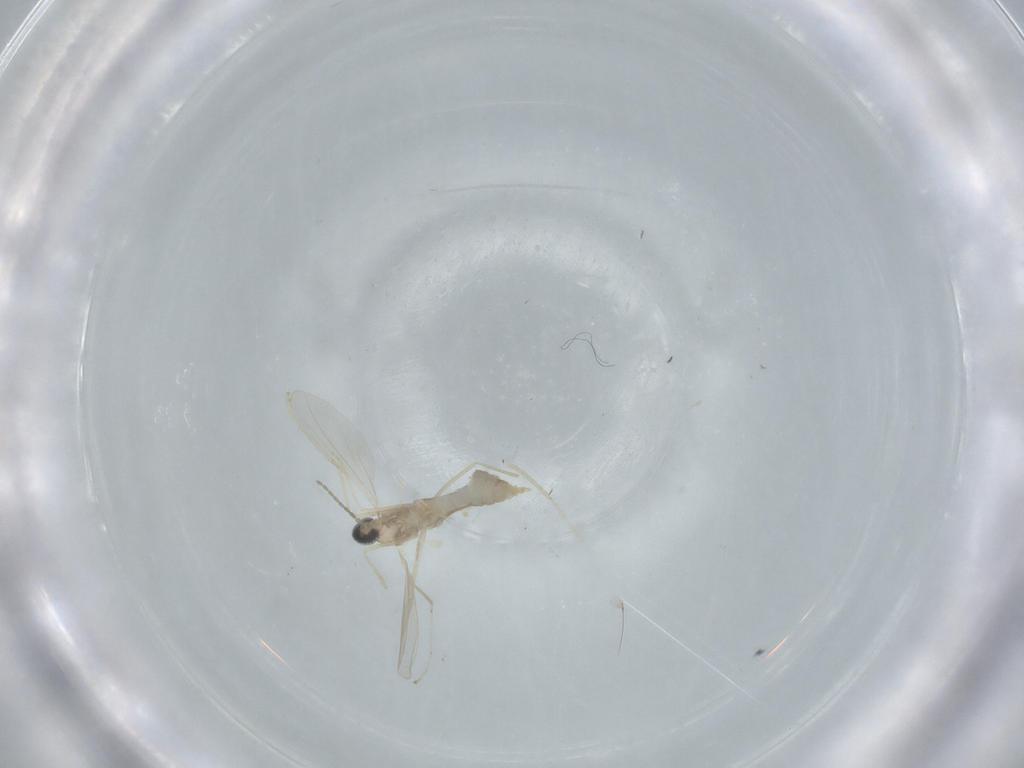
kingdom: Animalia
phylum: Arthropoda
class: Insecta
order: Diptera
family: Cecidomyiidae
